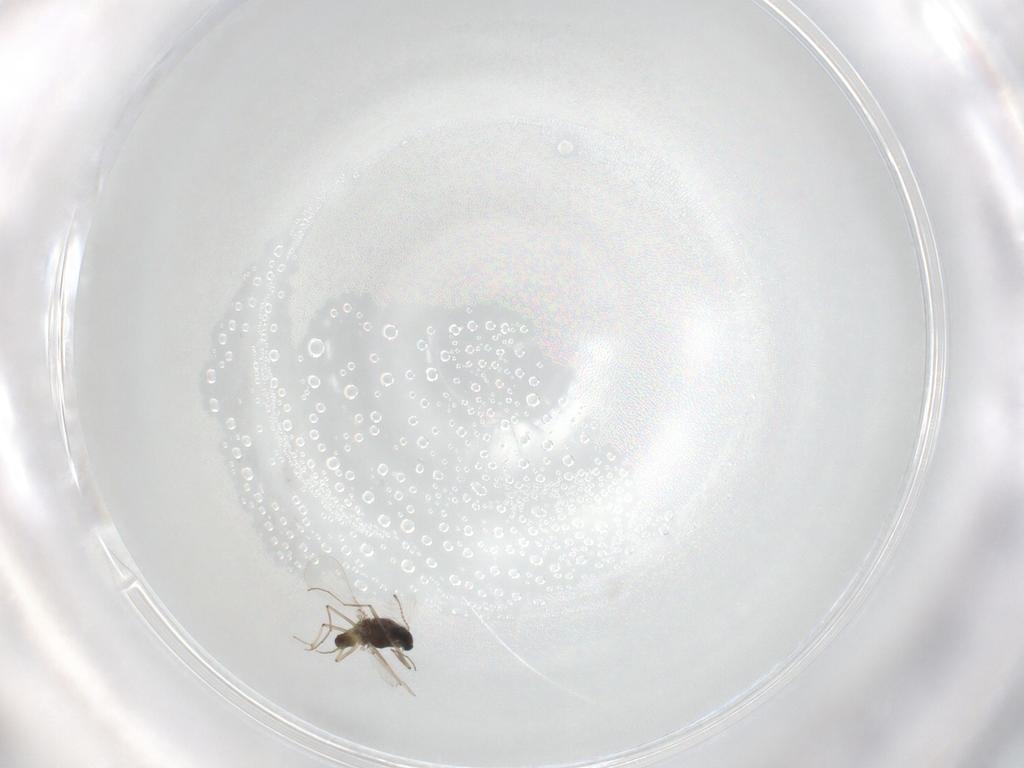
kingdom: Animalia
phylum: Arthropoda
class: Insecta
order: Diptera
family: Chironomidae
